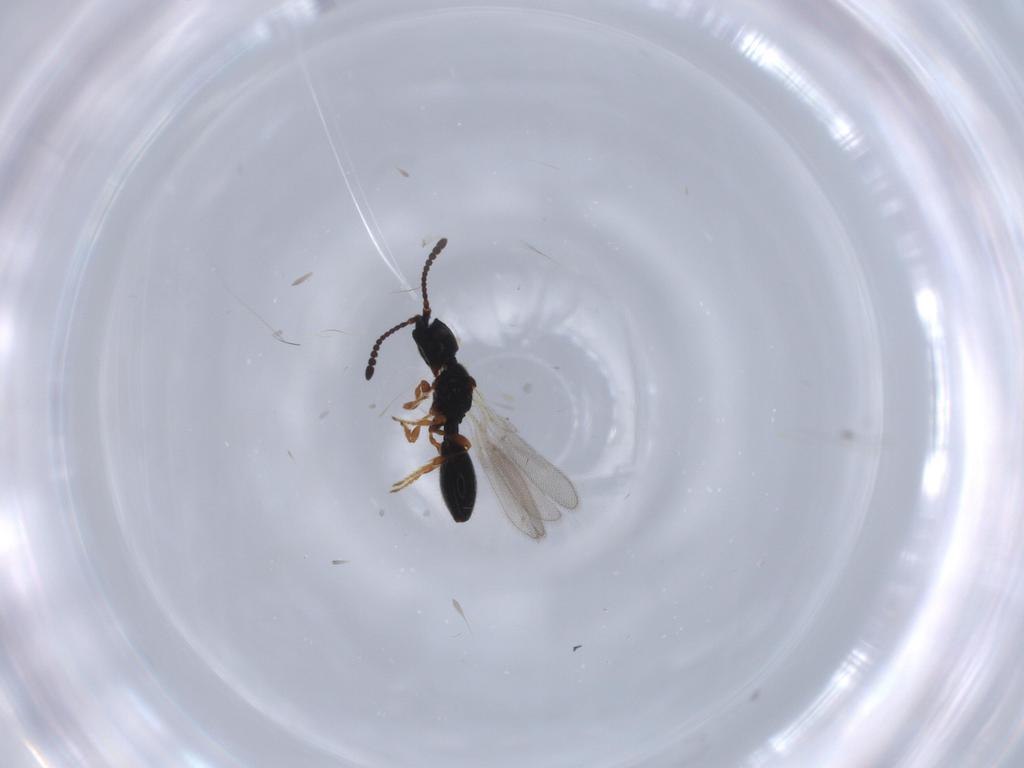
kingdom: Animalia
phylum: Arthropoda
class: Insecta
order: Hymenoptera
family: Diapriidae
